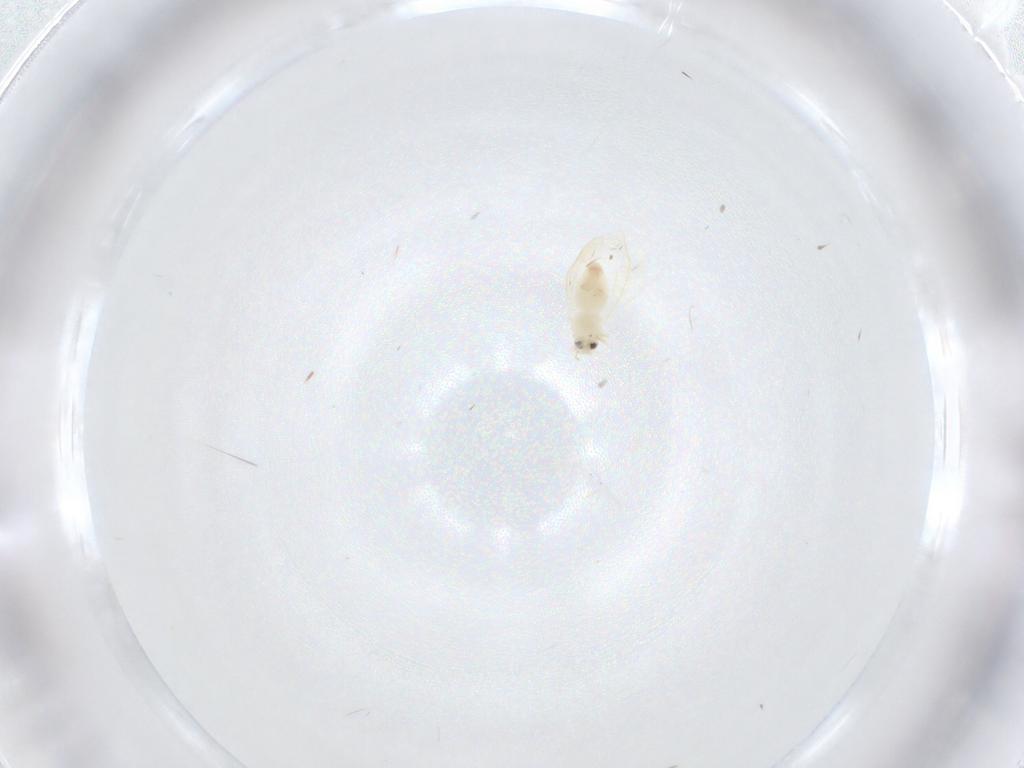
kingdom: Animalia
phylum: Arthropoda
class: Insecta
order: Hemiptera
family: Aleyrodidae
